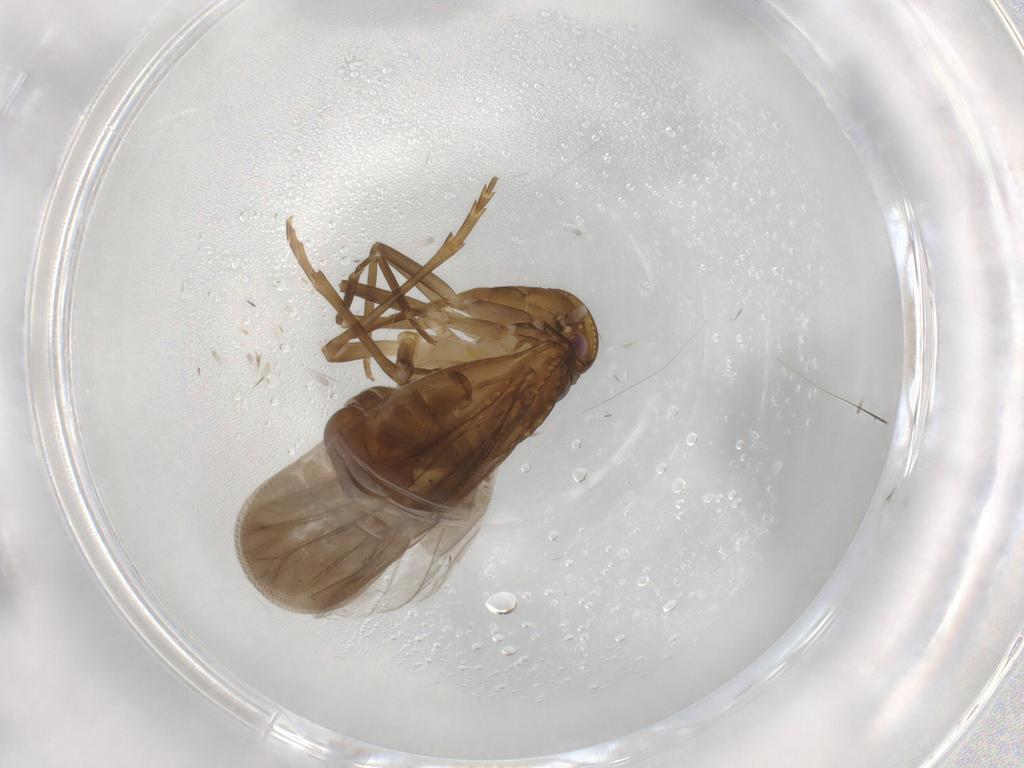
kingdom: Animalia
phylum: Arthropoda
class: Insecta
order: Hemiptera
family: Meenoplidae
